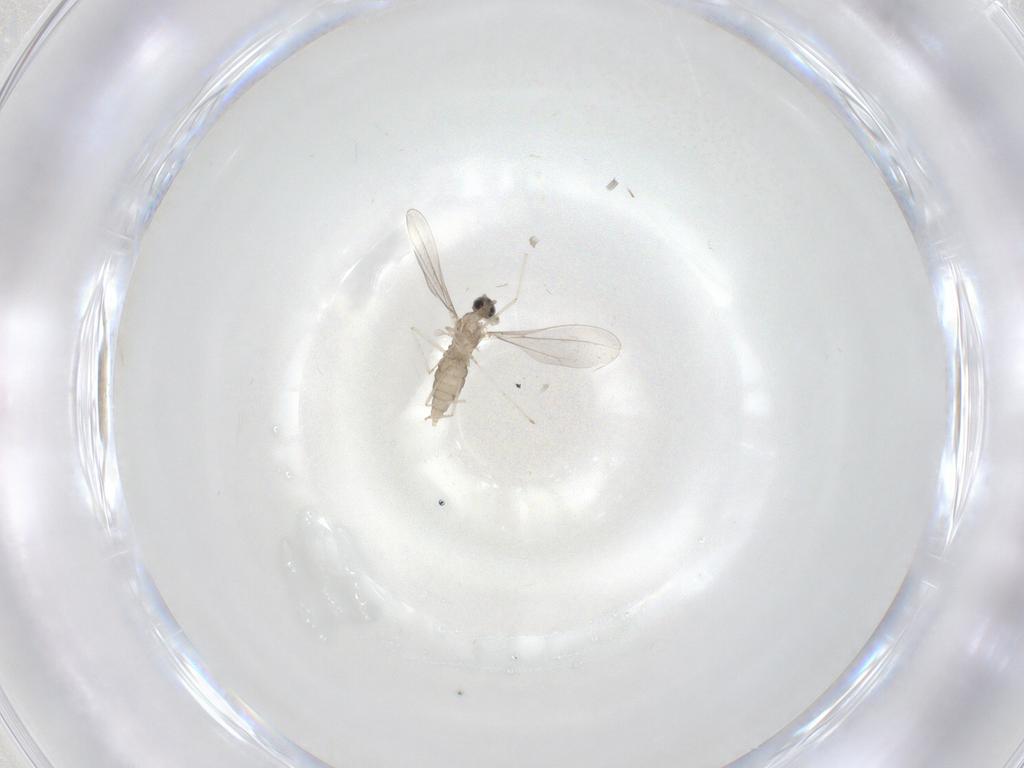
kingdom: Animalia
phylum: Arthropoda
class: Insecta
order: Diptera
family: Cecidomyiidae
